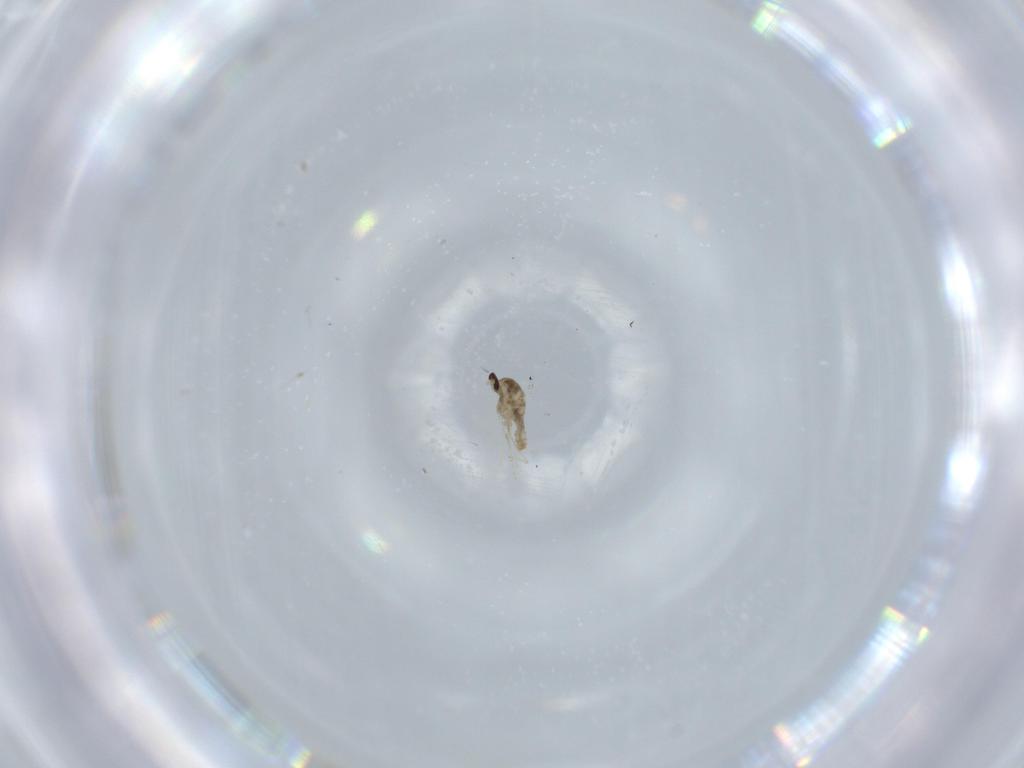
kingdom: Animalia
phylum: Arthropoda
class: Insecta
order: Diptera
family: Cecidomyiidae
